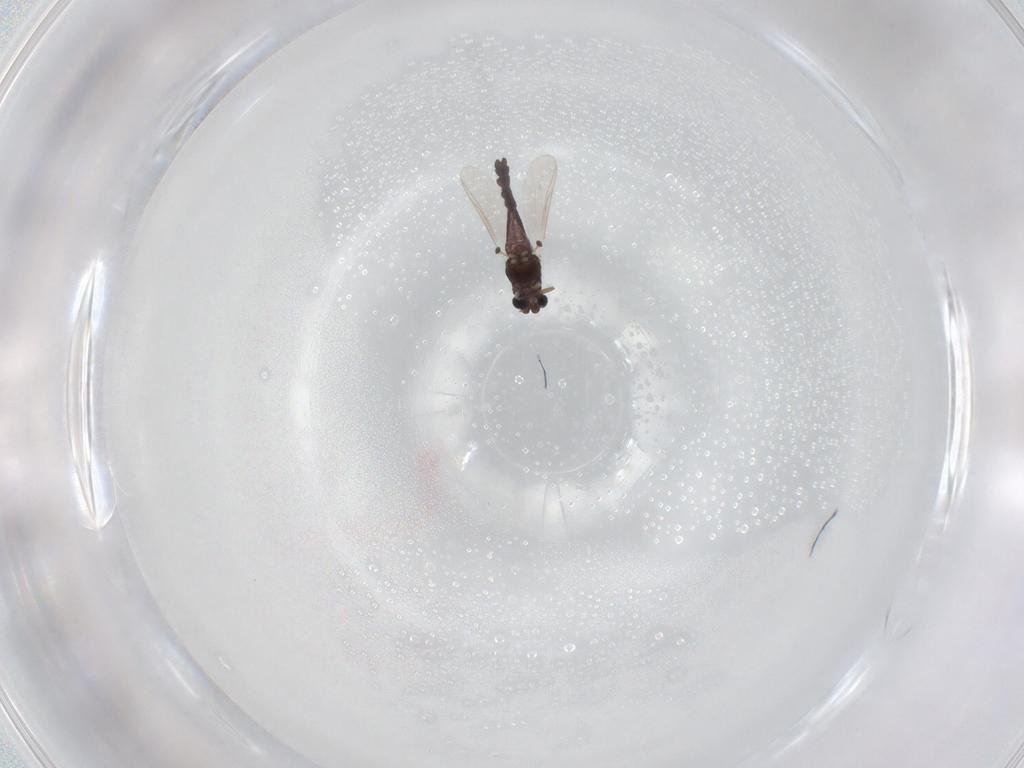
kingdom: Animalia
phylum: Arthropoda
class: Insecta
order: Diptera
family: Chironomidae
